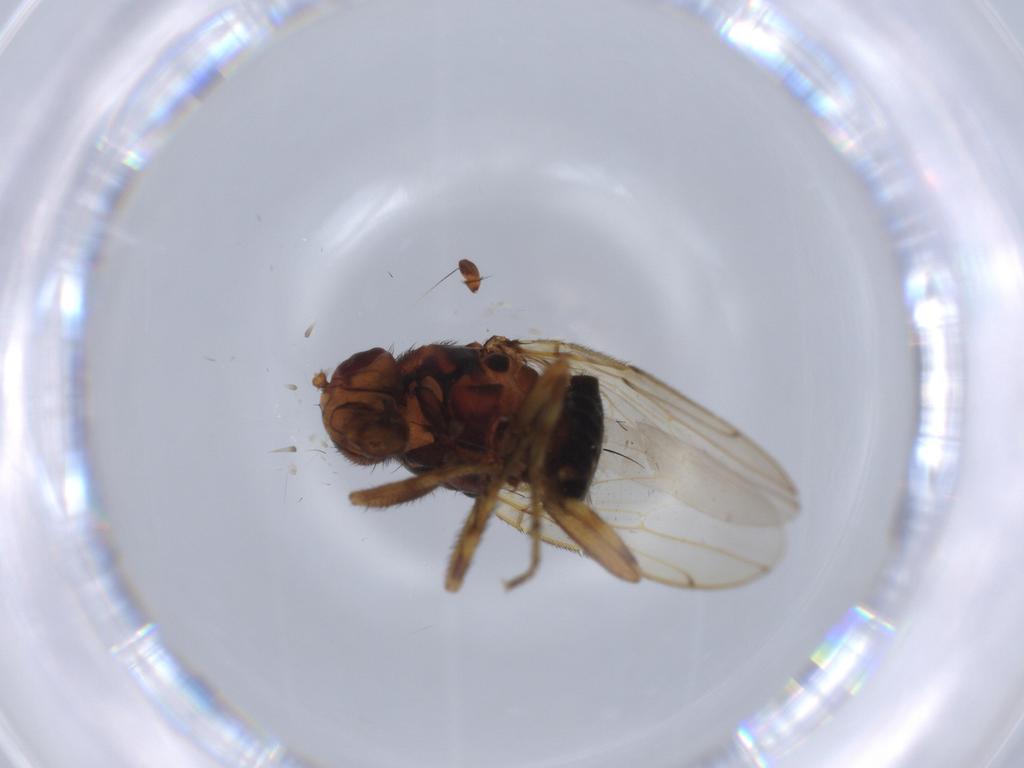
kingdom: Animalia
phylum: Arthropoda
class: Insecta
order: Diptera
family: Sphaeroceridae
